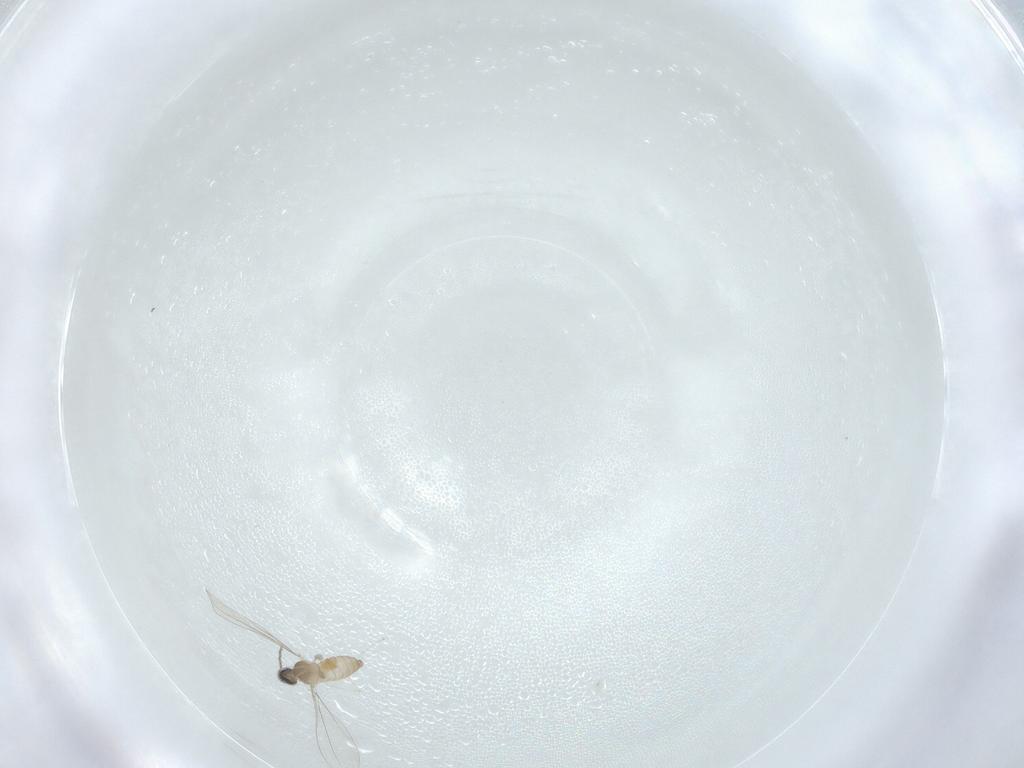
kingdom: Animalia
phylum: Arthropoda
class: Insecta
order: Diptera
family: Cecidomyiidae
